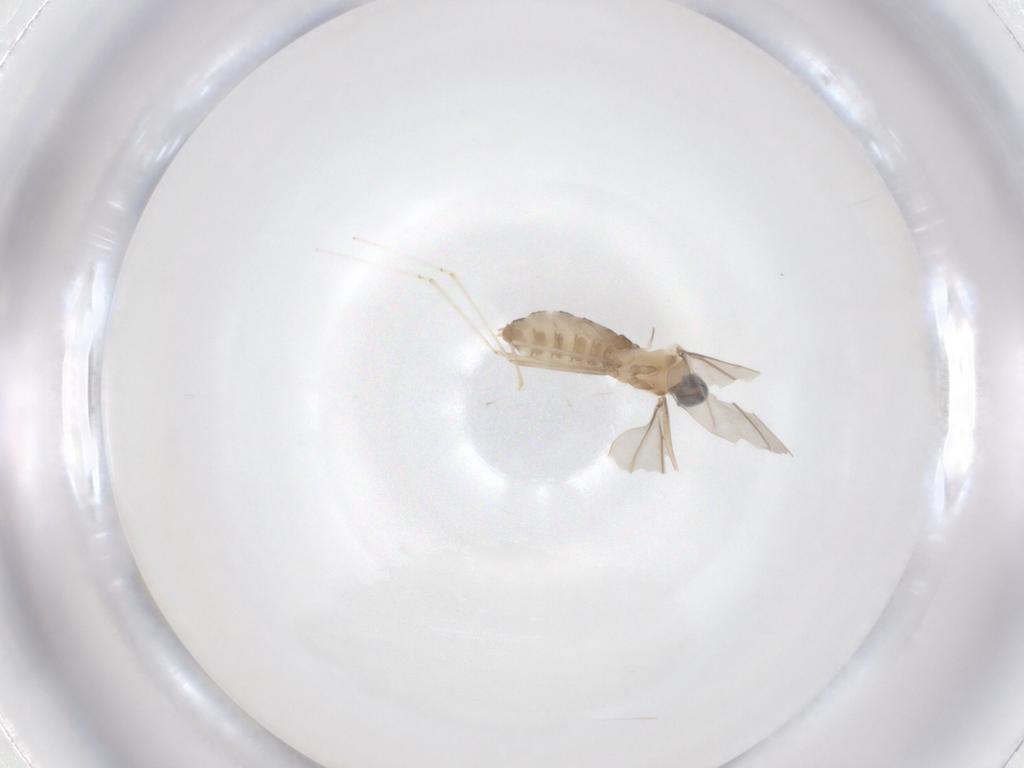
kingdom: Animalia
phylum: Arthropoda
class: Insecta
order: Diptera
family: Cecidomyiidae
